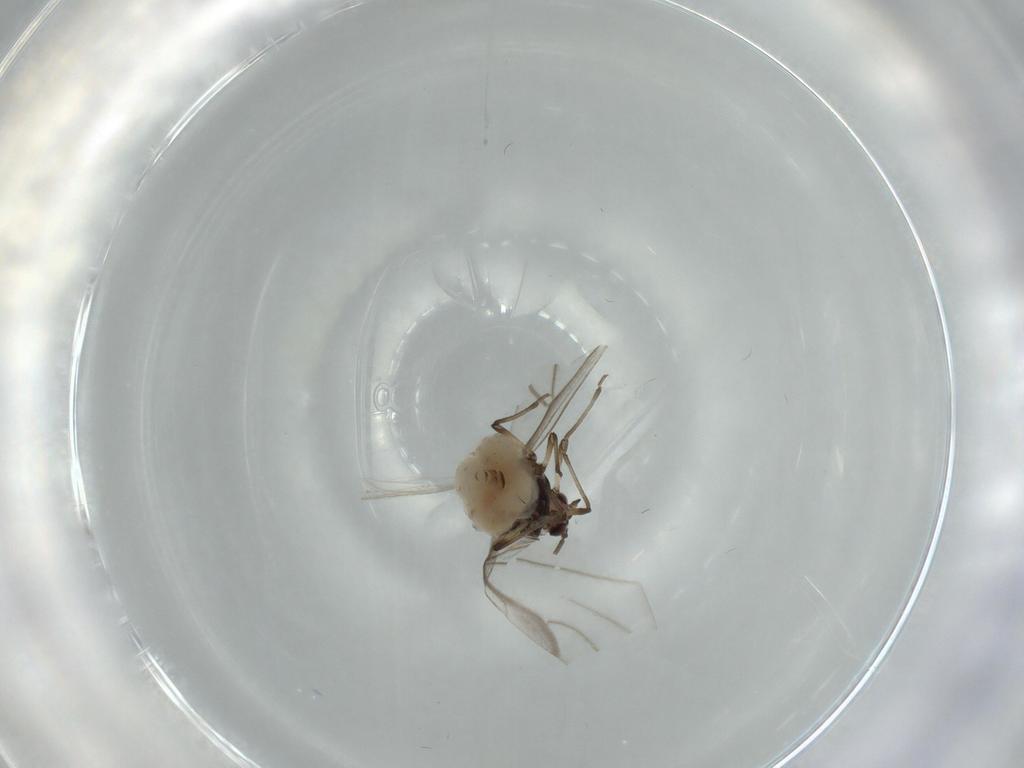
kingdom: Animalia
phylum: Arthropoda
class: Insecta
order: Hemiptera
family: Aphididae
